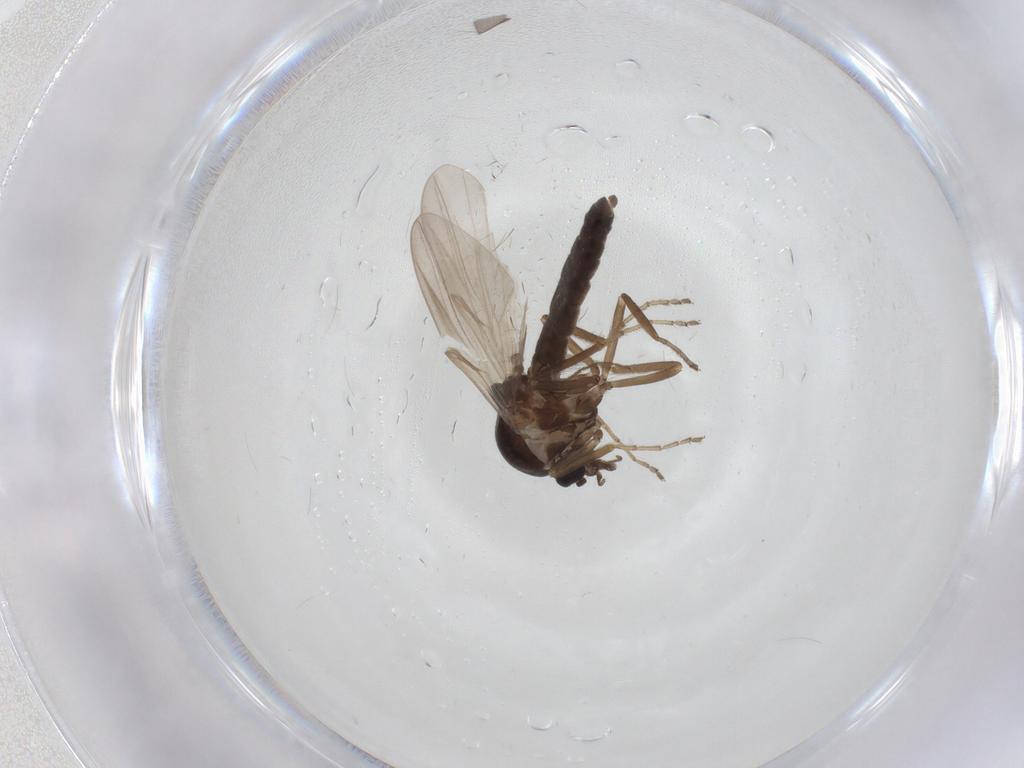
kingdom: Animalia
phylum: Arthropoda
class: Insecta
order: Diptera
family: Ceratopogonidae
